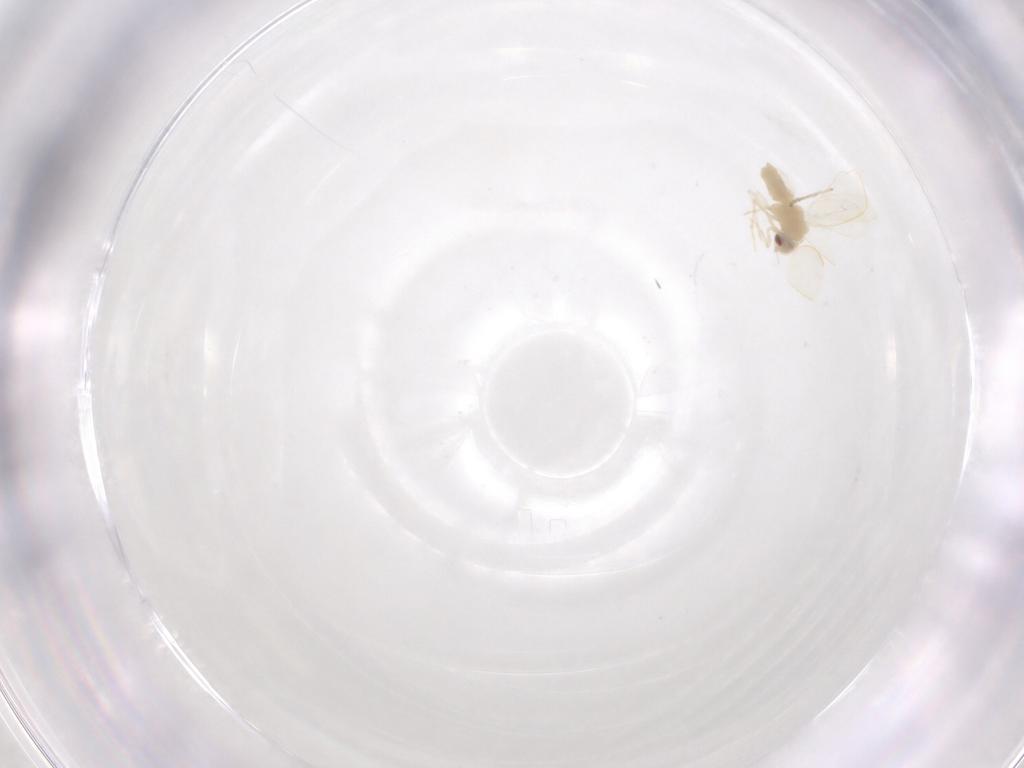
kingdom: Animalia
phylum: Arthropoda
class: Insecta
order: Hemiptera
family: Aleyrodidae
